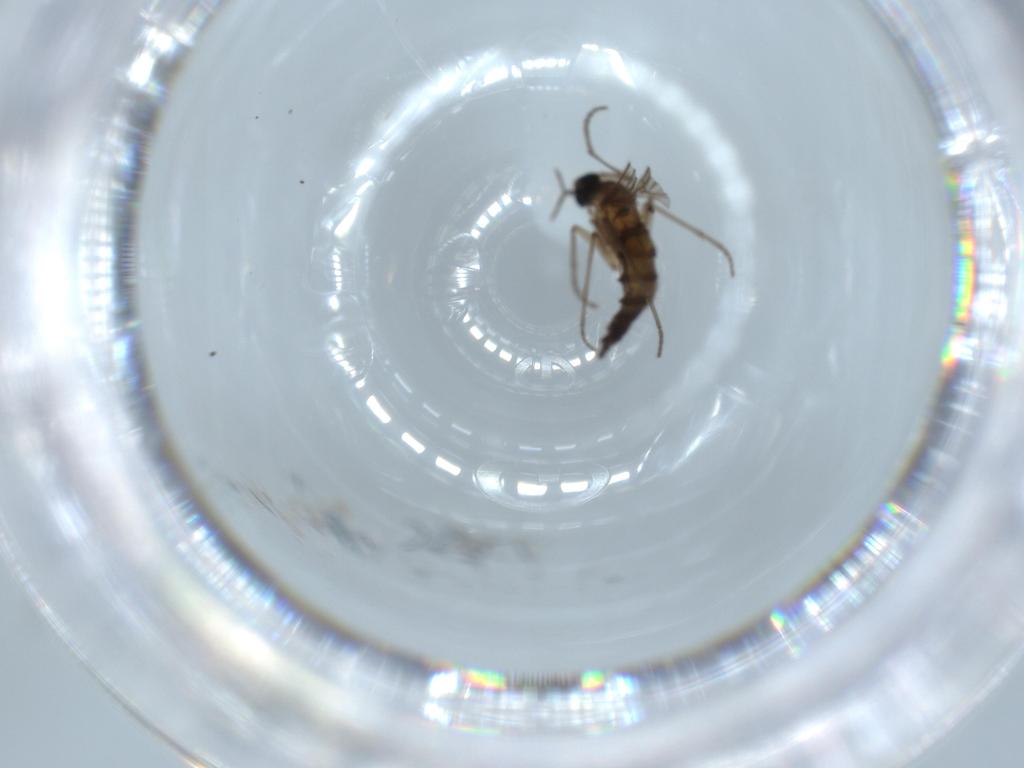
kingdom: Animalia
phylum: Arthropoda
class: Insecta
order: Diptera
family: Sciaridae
